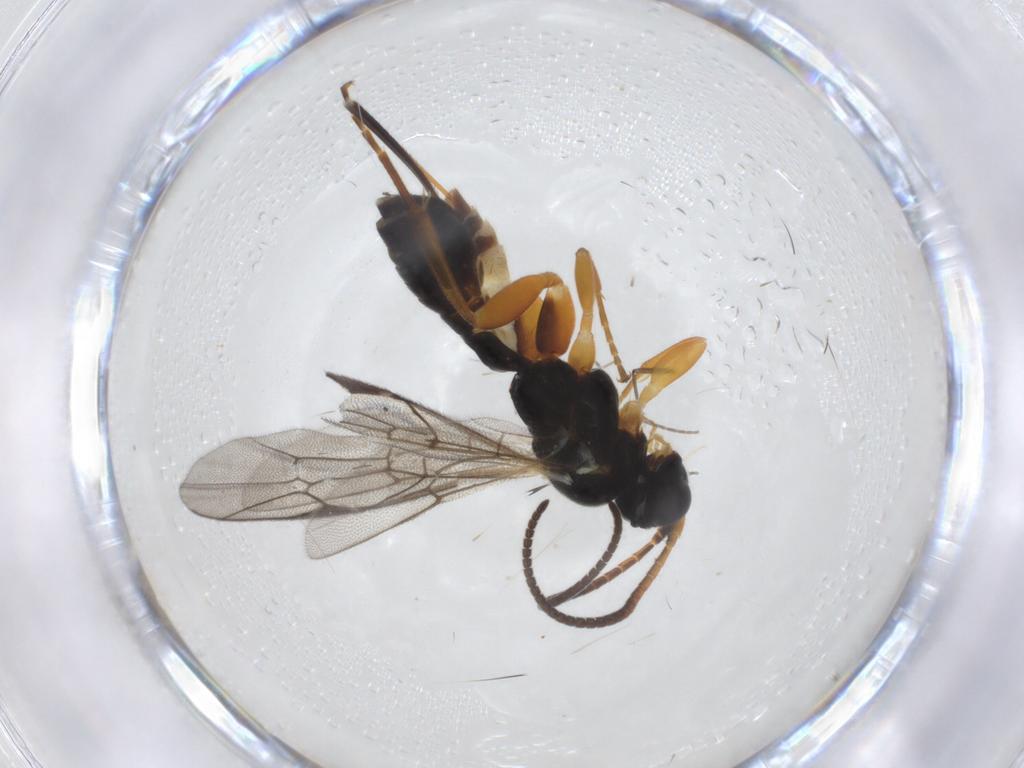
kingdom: Animalia
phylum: Arthropoda
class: Insecta
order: Hymenoptera
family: Ichneumonidae
